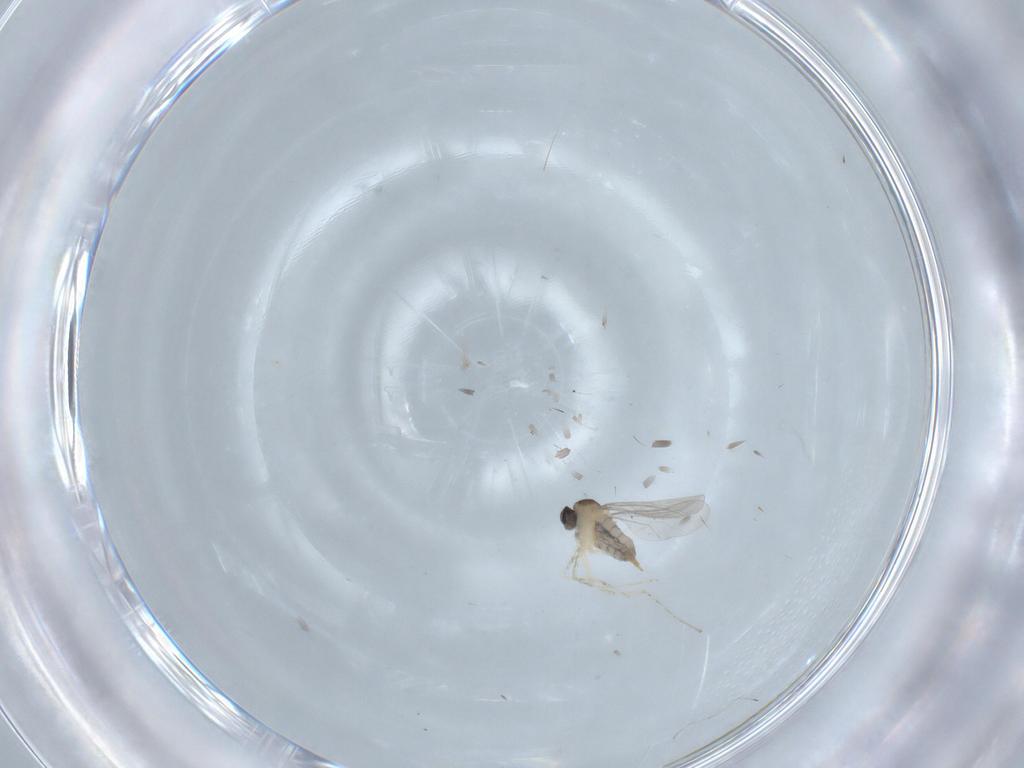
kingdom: Animalia
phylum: Arthropoda
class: Insecta
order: Diptera
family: Cecidomyiidae
